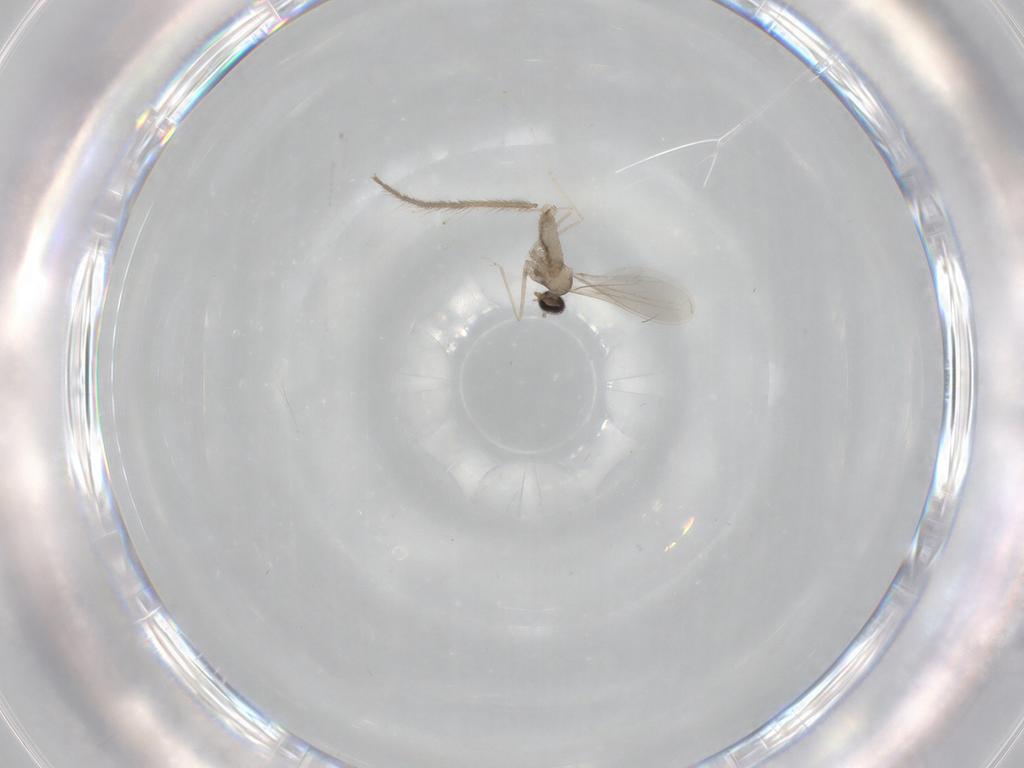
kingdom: Animalia
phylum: Arthropoda
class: Insecta
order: Diptera
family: Cecidomyiidae
